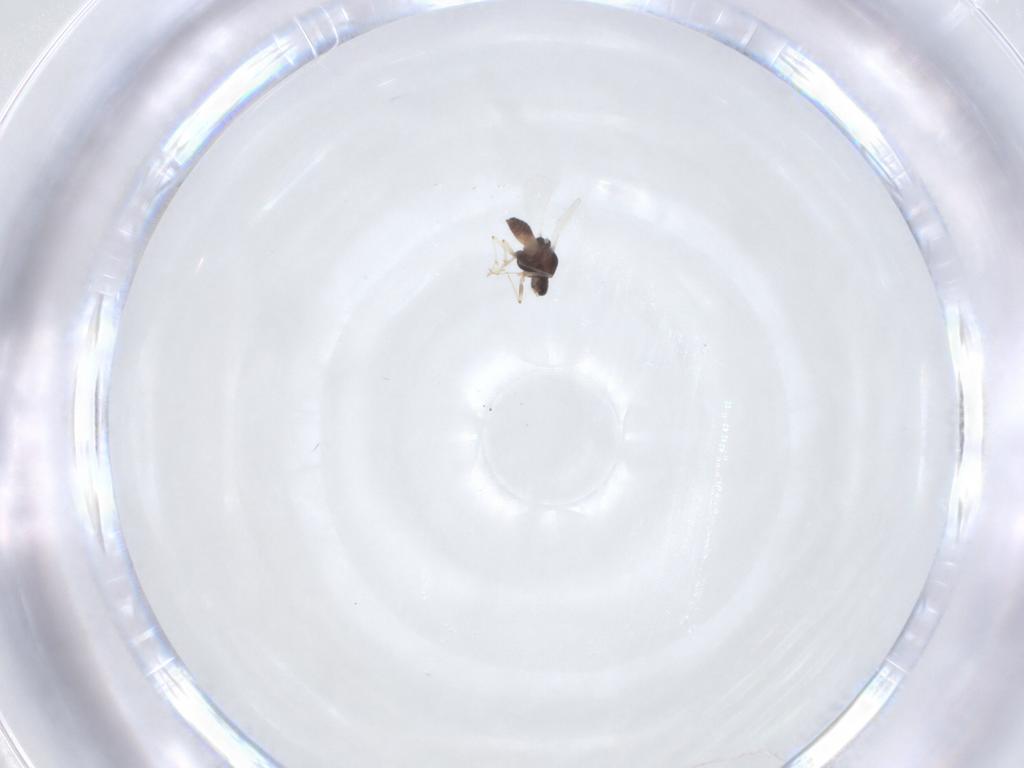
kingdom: Animalia
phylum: Arthropoda
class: Insecta
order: Diptera
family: Chironomidae
